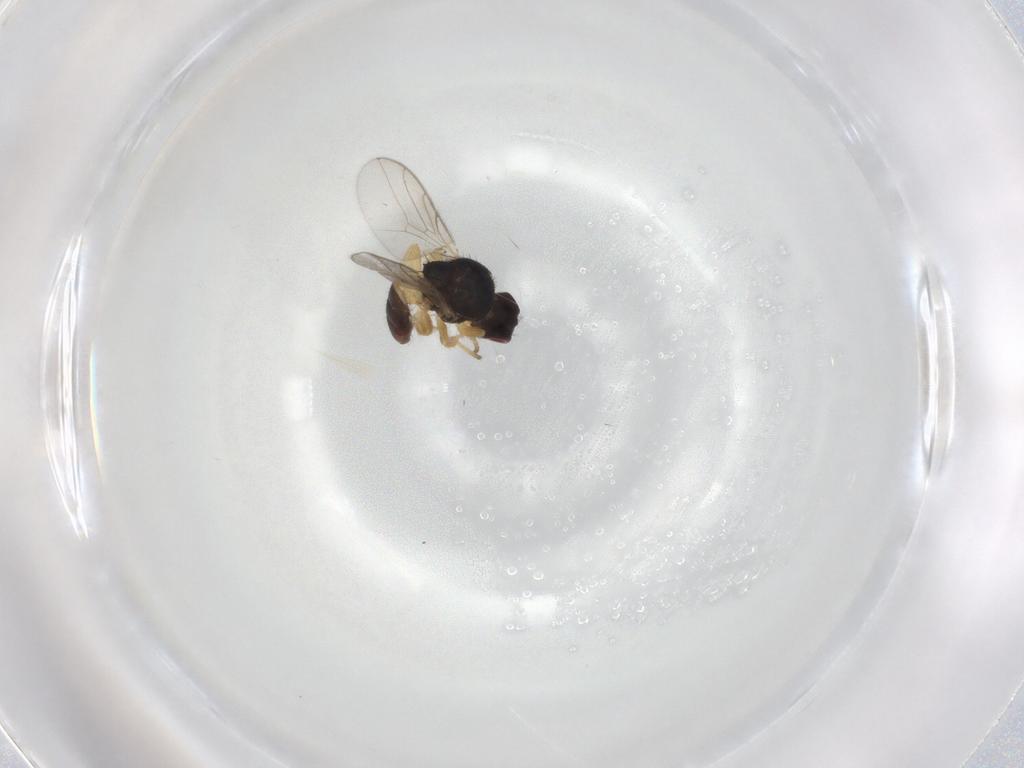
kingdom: Animalia
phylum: Arthropoda
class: Insecta
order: Diptera
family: Chloropidae
